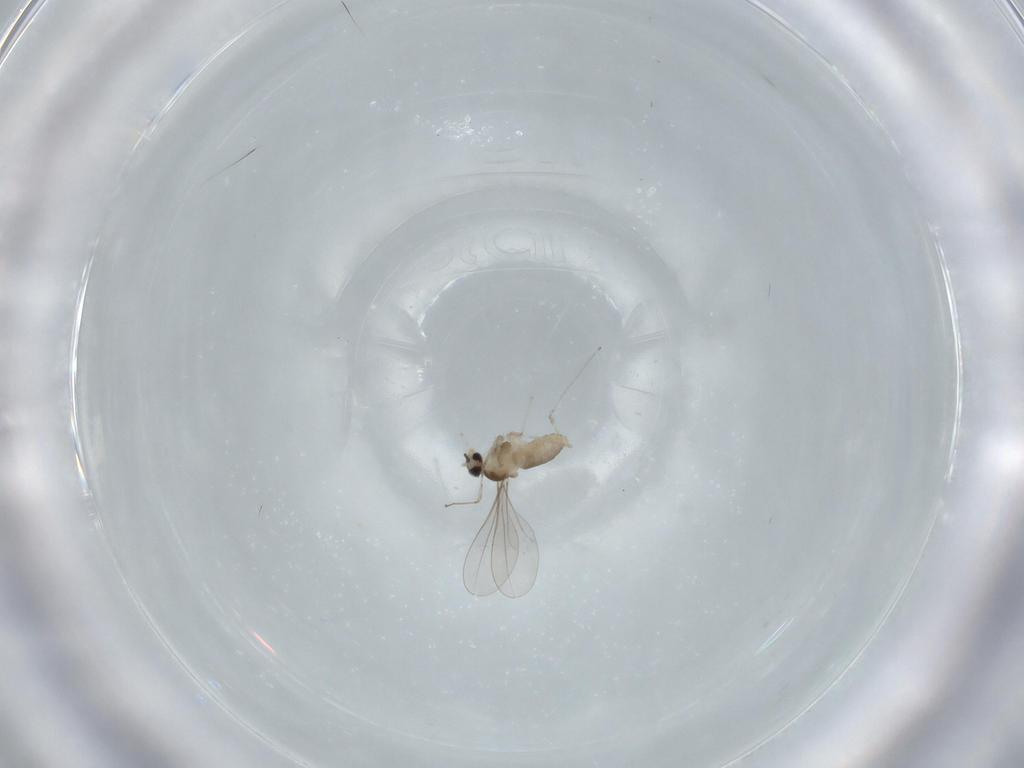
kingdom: Animalia
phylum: Arthropoda
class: Insecta
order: Diptera
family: Cecidomyiidae
